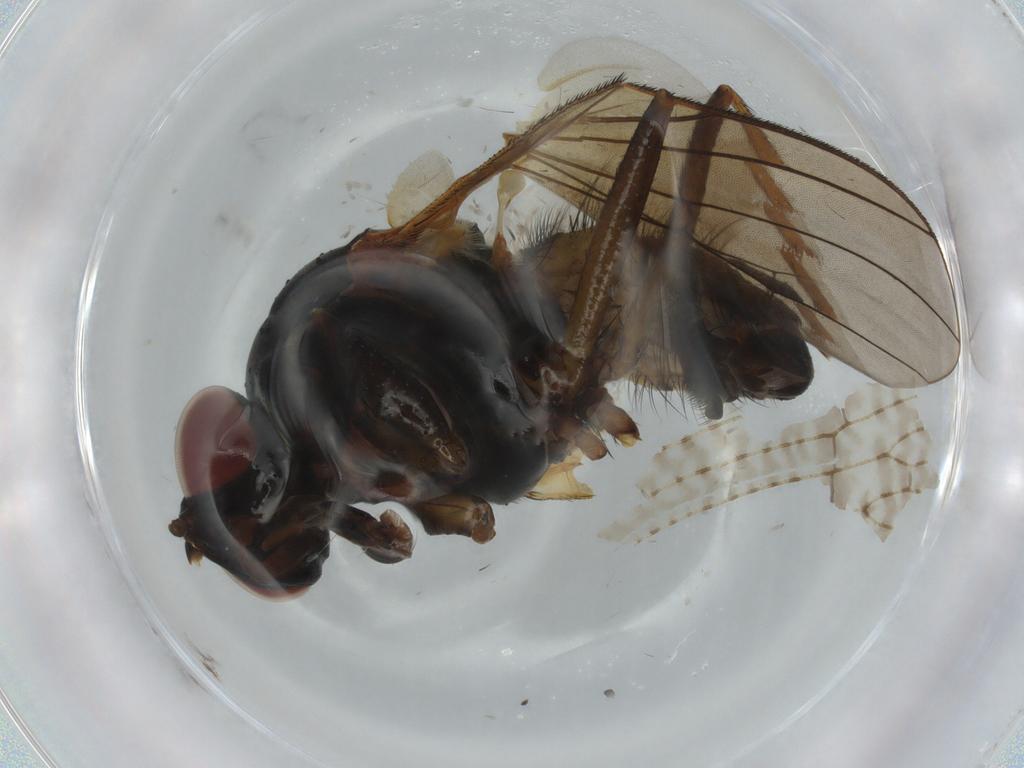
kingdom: Animalia
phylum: Arthropoda
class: Insecta
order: Diptera
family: Anthomyiidae
